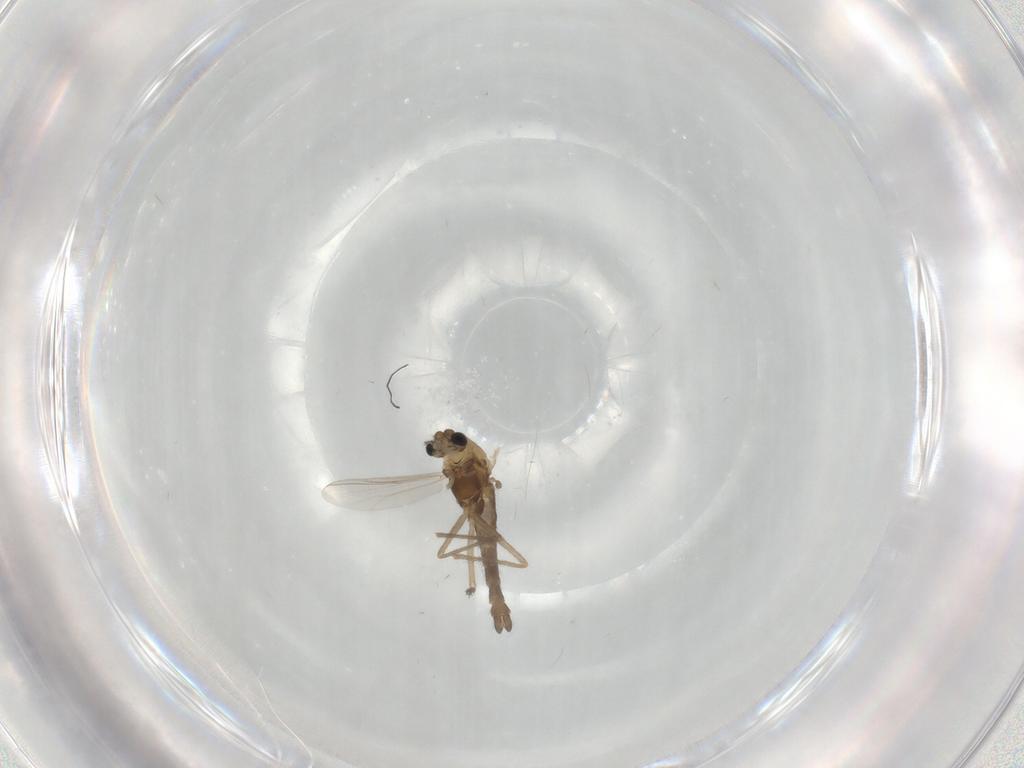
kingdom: Animalia
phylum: Arthropoda
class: Insecta
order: Diptera
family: Chironomidae
